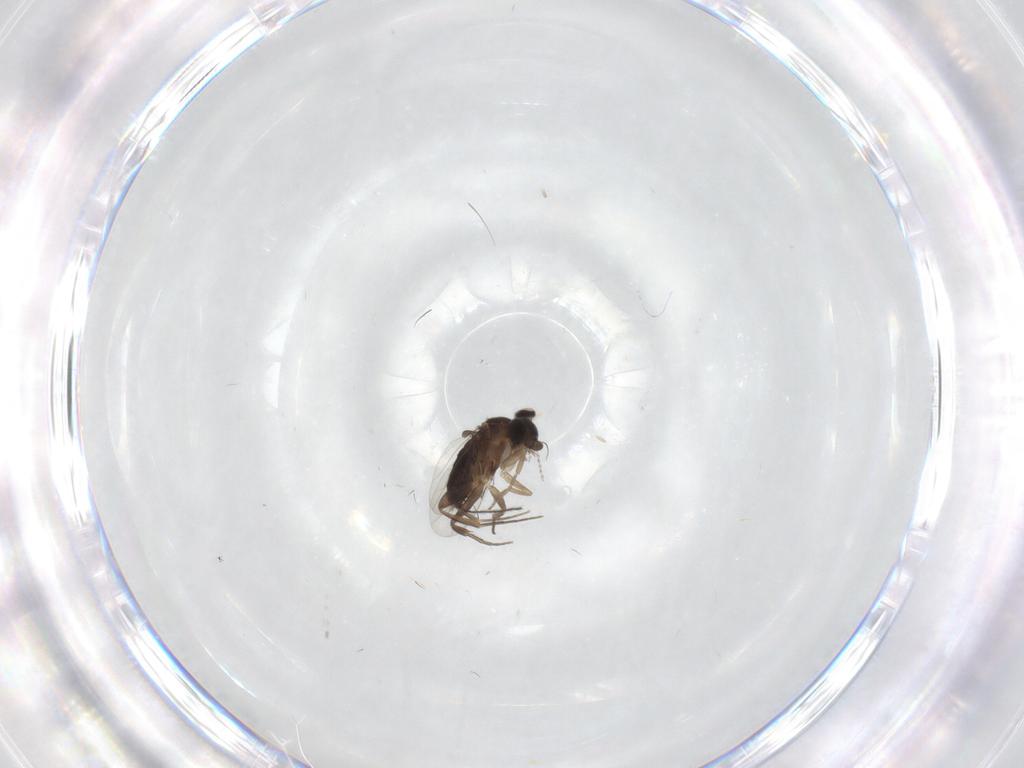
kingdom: Animalia
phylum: Arthropoda
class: Insecta
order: Diptera
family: Phoridae
